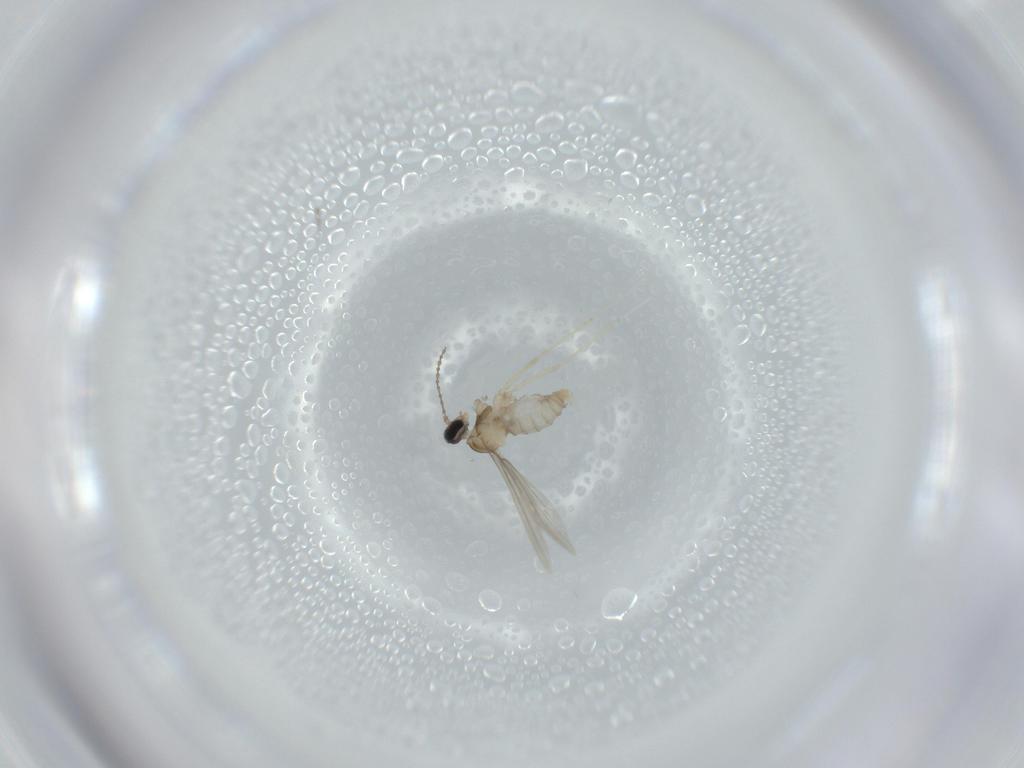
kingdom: Animalia
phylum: Arthropoda
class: Insecta
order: Diptera
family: Cecidomyiidae
